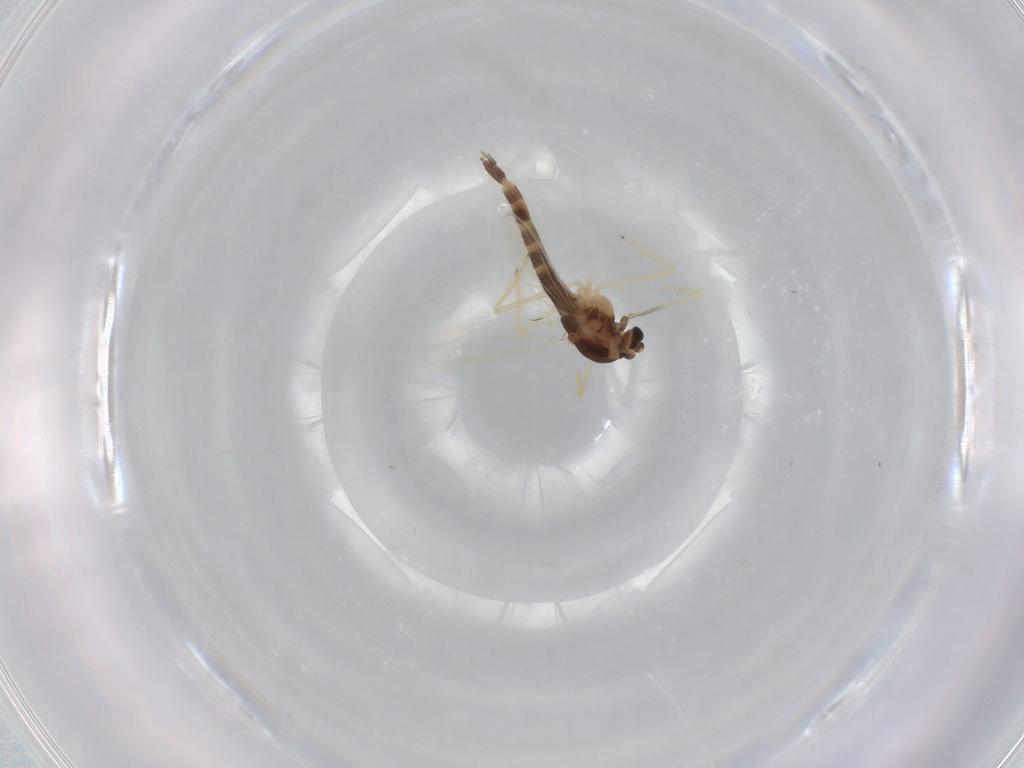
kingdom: Animalia
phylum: Arthropoda
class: Insecta
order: Diptera
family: Chironomidae
